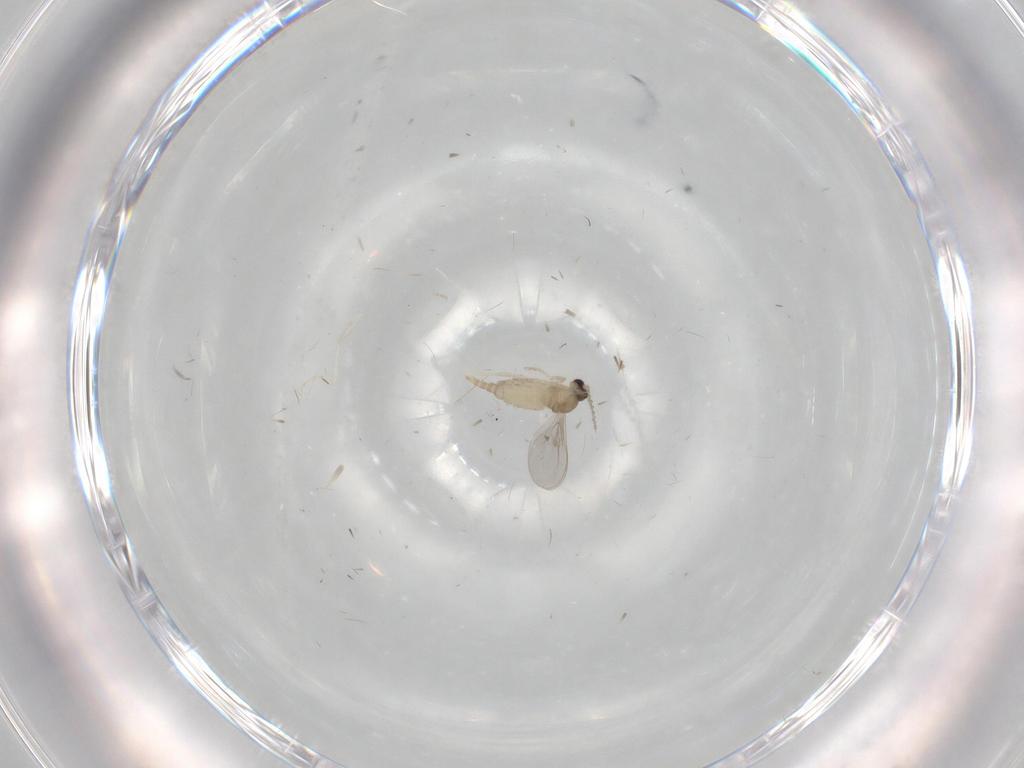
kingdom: Animalia
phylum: Arthropoda
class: Insecta
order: Diptera
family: Cecidomyiidae
